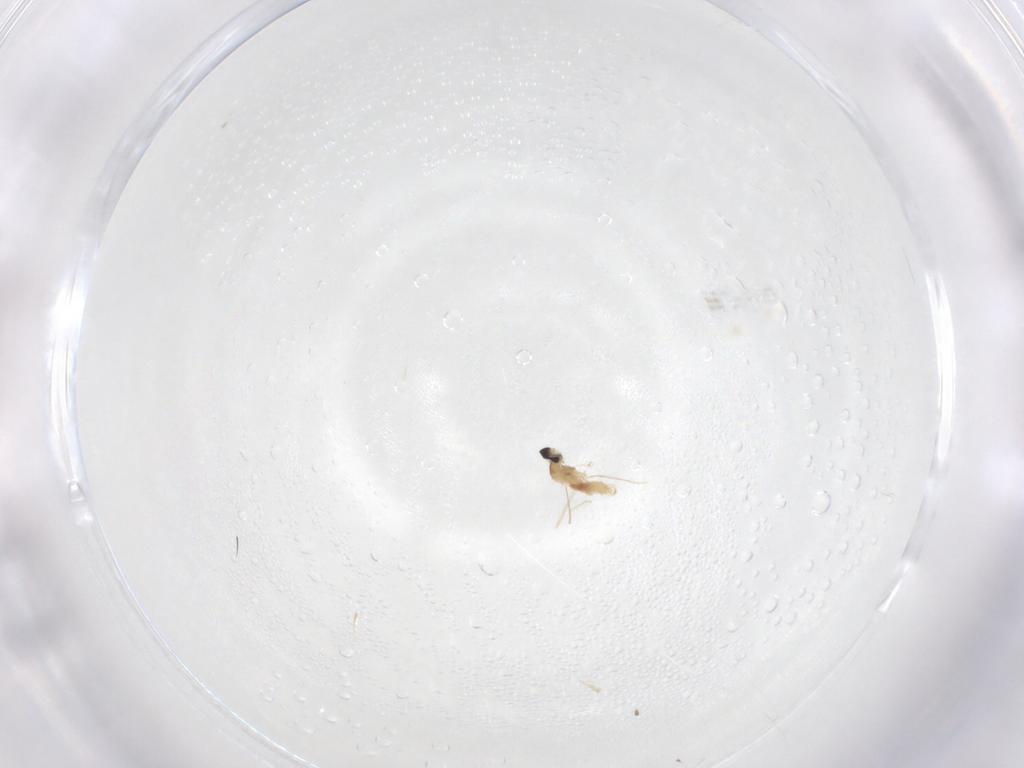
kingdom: Animalia
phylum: Arthropoda
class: Insecta
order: Diptera
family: Cecidomyiidae
